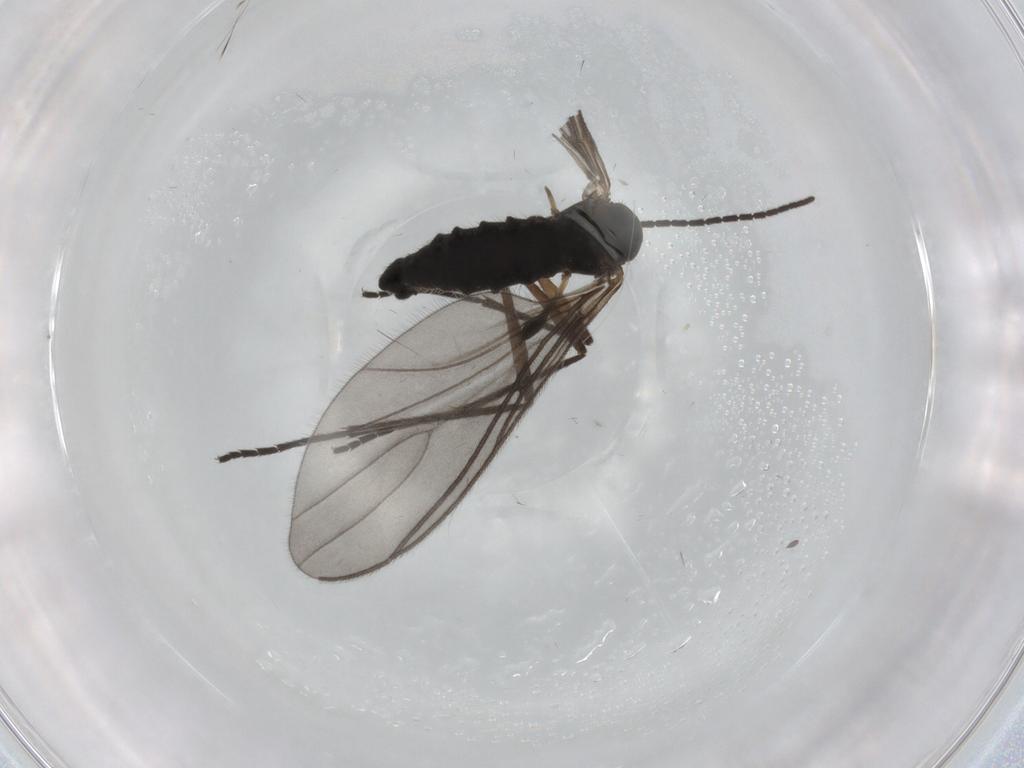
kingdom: Animalia
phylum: Arthropoda
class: Insecta
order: Diptera
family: Sciaridae
